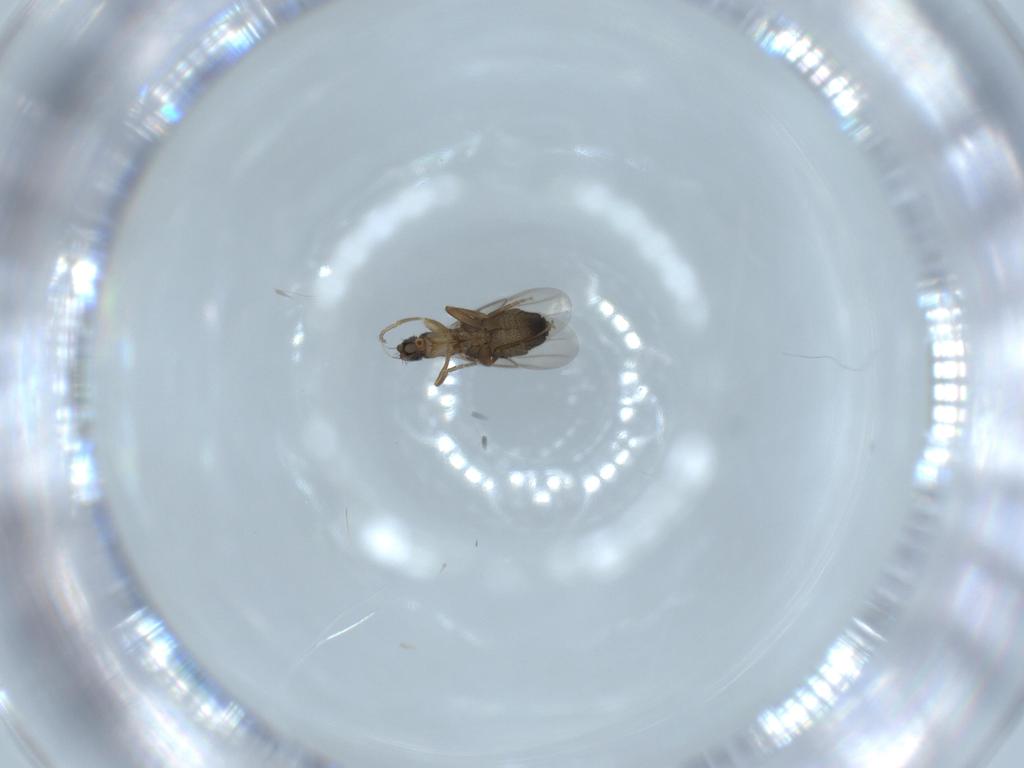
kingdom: Animalia
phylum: Arthropoda
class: Insecta
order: Diptera
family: Phoridae
